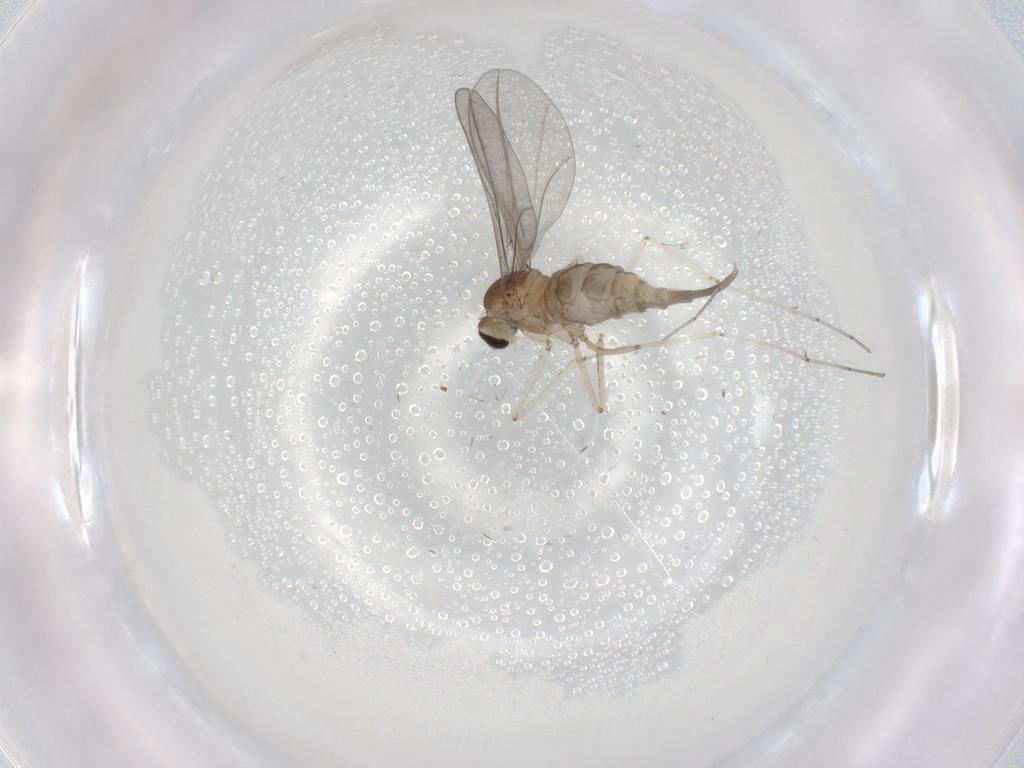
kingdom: Animalia
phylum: Arthropoda
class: Insecta
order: Diptera
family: Cecidomyiidae
